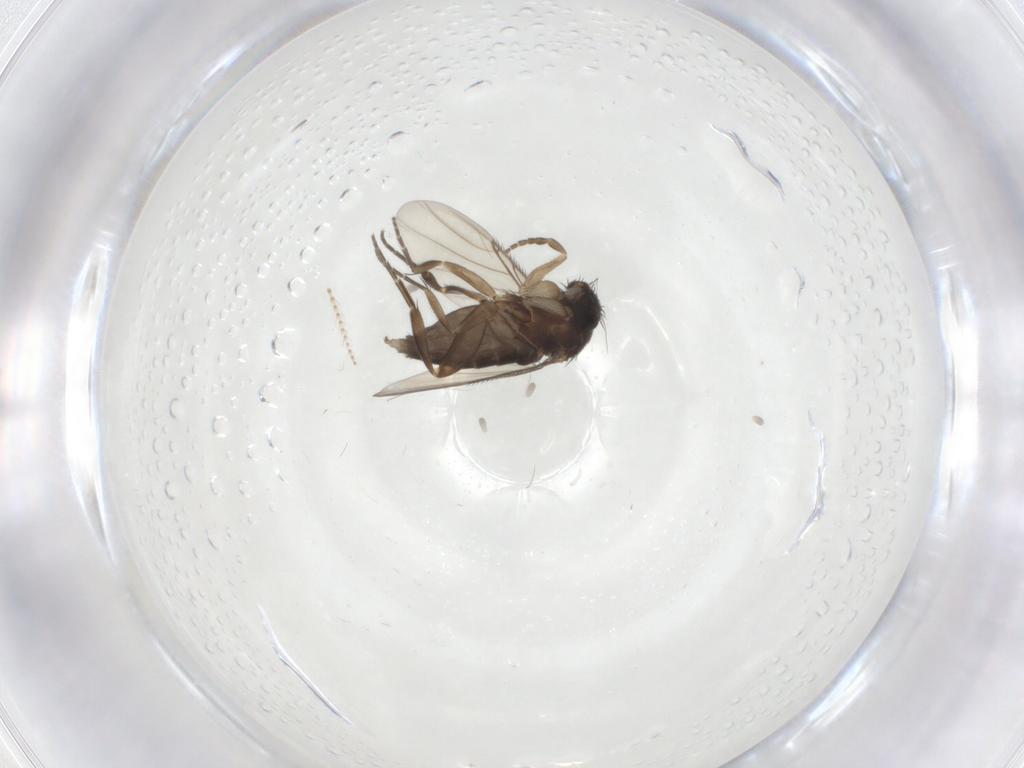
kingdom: Animalia
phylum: Arthropoda
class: Insecta
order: Diptera
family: Phoridae
